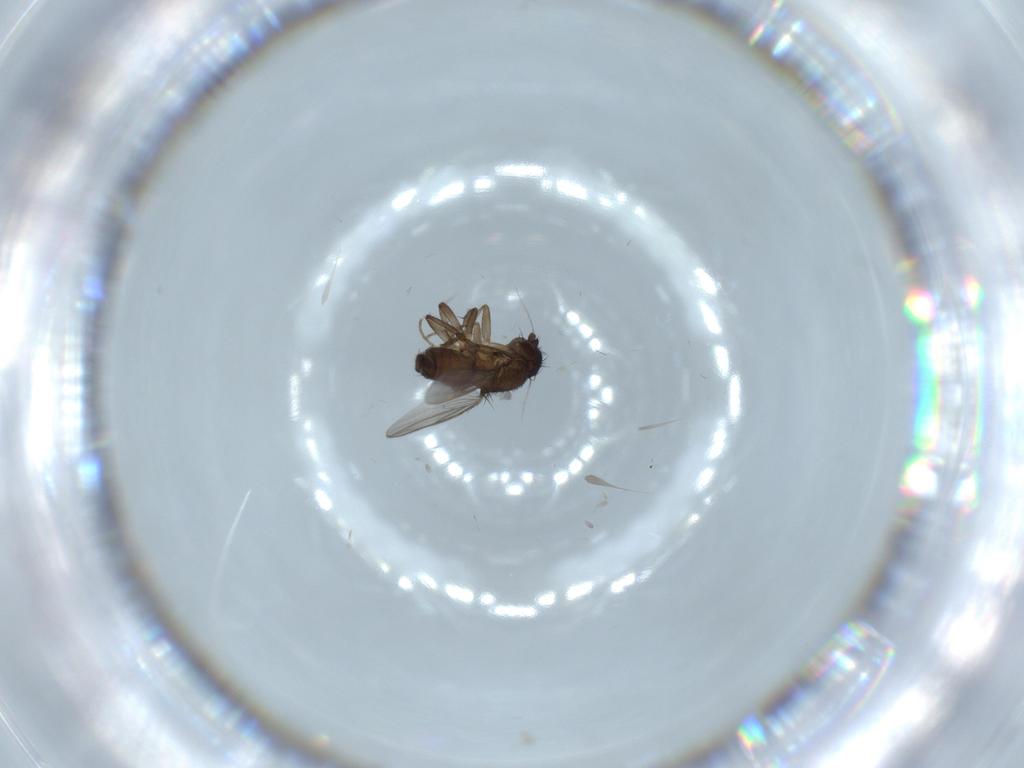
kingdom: Animalia
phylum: Arthropoda
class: Insecta
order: Diptera
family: Sphaeroceridae
